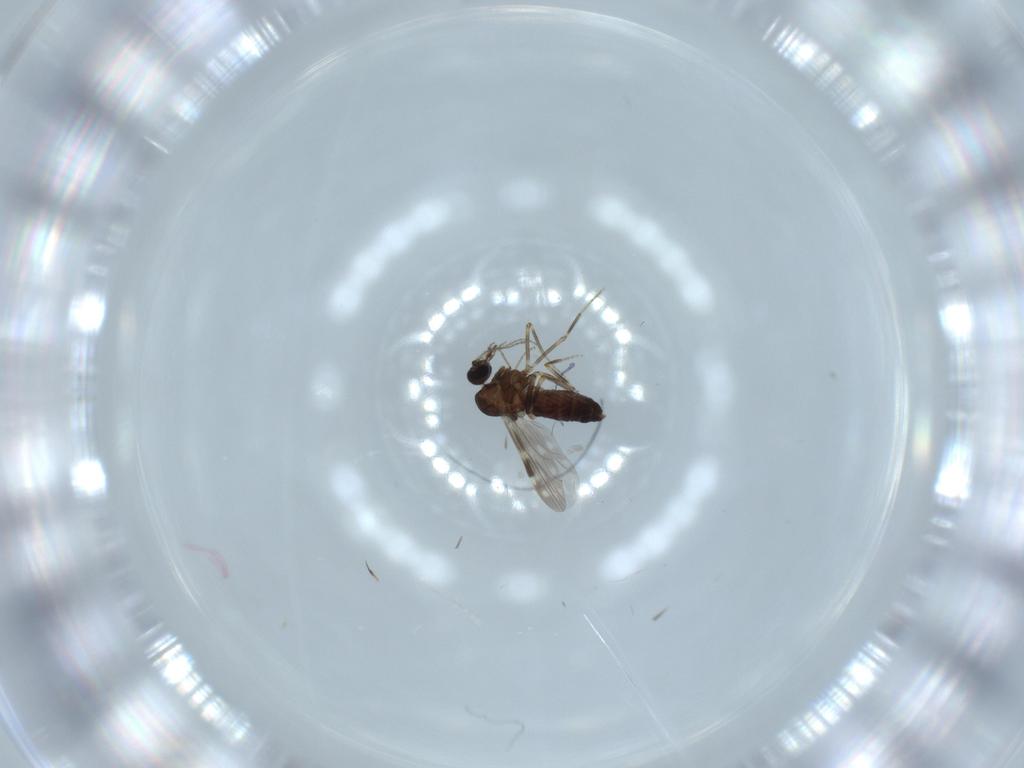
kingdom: Animalia
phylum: Arthropoda
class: Insecta
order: Diptera
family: Ceratopogonidae
